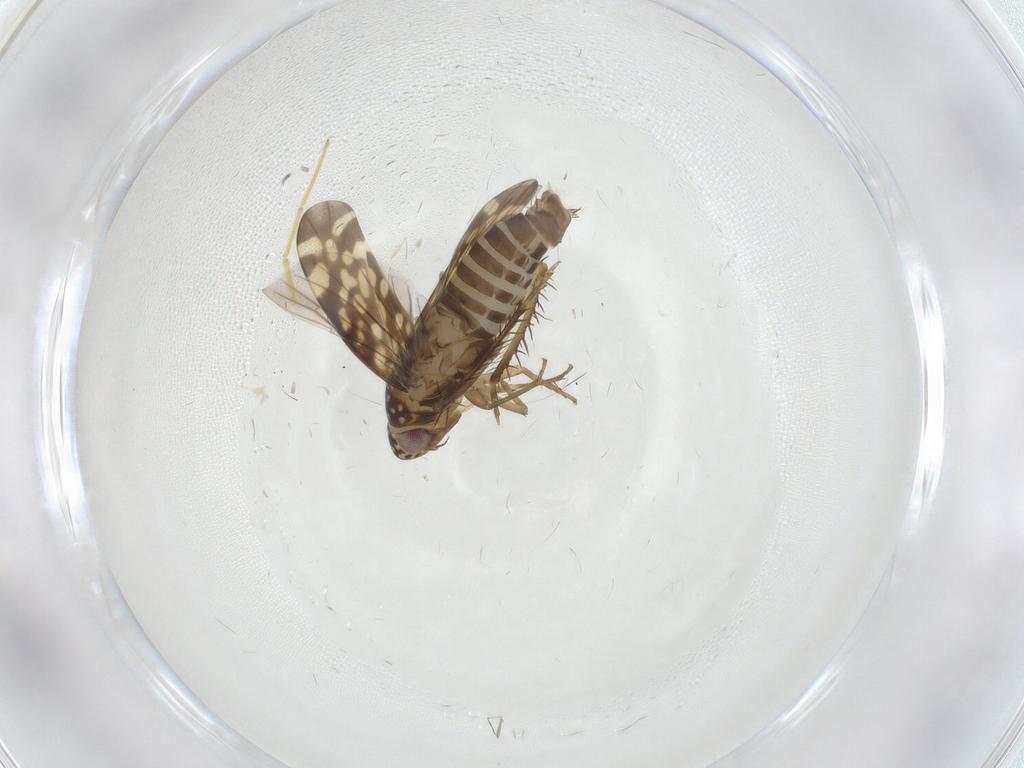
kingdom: Animalia
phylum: Arthropoda
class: Insecta
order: Hemiptera
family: Cicadellidae
